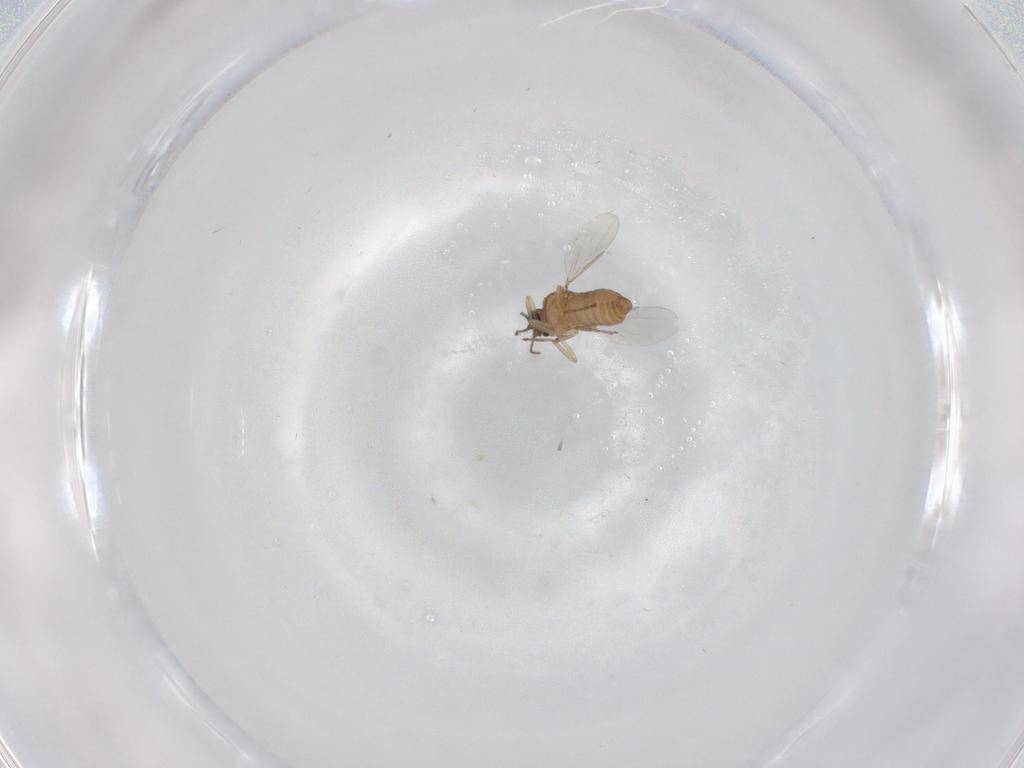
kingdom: Animalia
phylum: Arthropoda
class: Insecta
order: Diptera
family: Ceratopogonidae
